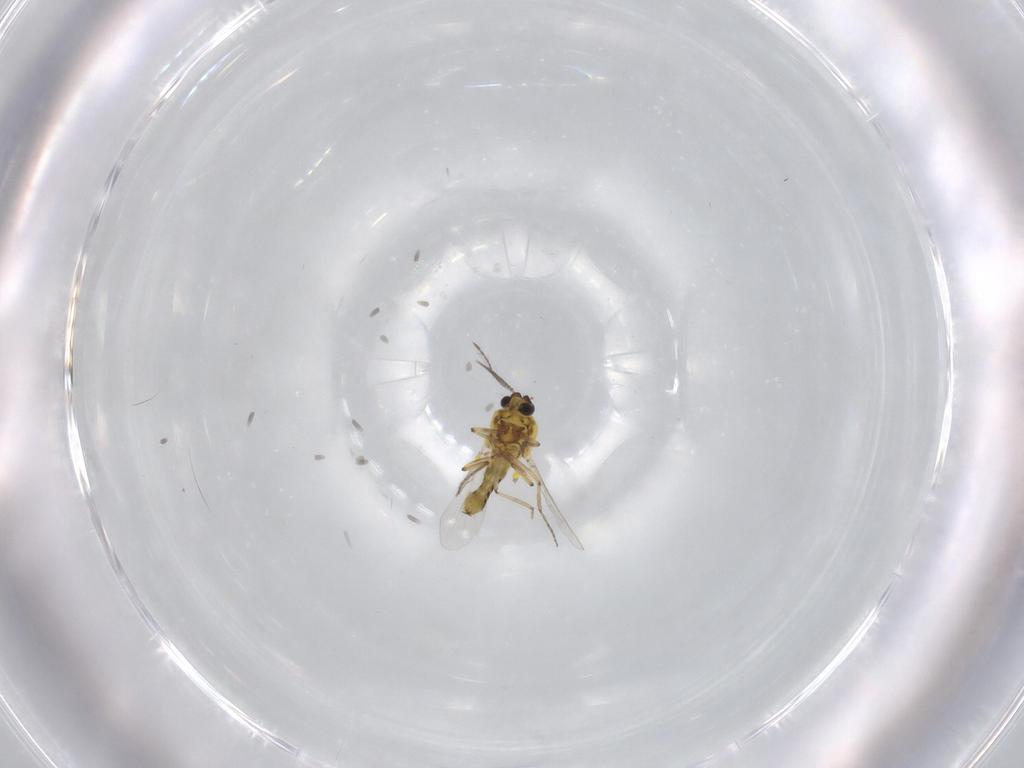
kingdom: Animalia
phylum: Arthropoda
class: Insecta
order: Diptera
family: Ceratopogonidae
